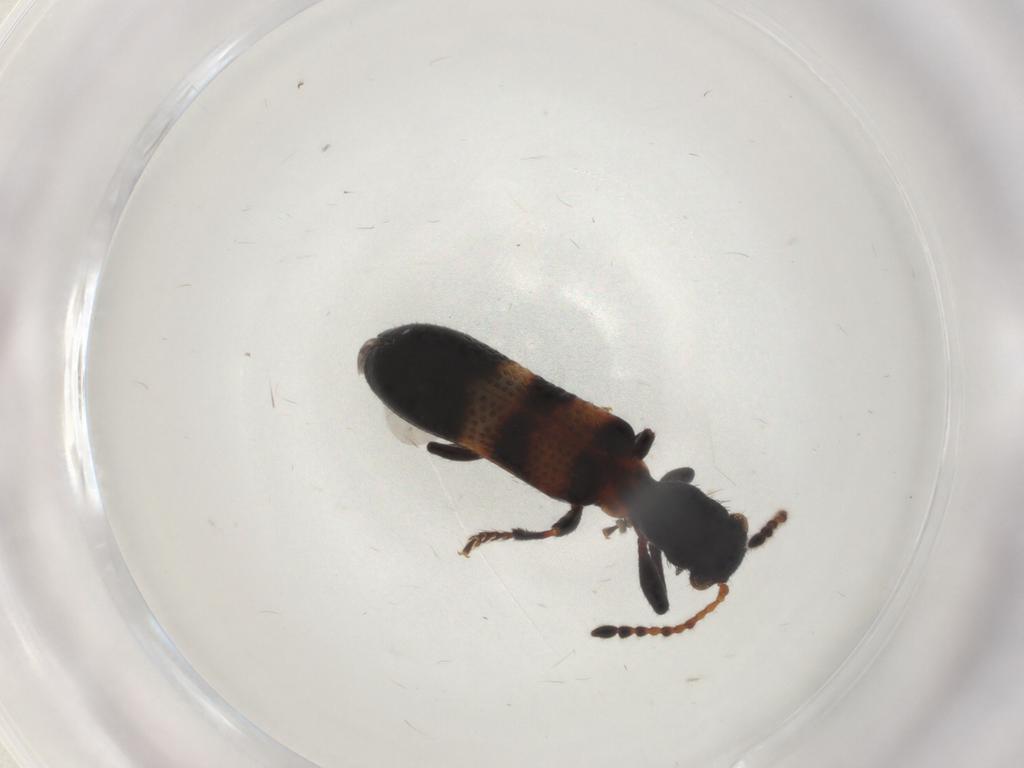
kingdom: Animalia
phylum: Arthropoda
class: Insecta
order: Coleoptera
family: Cleridae
